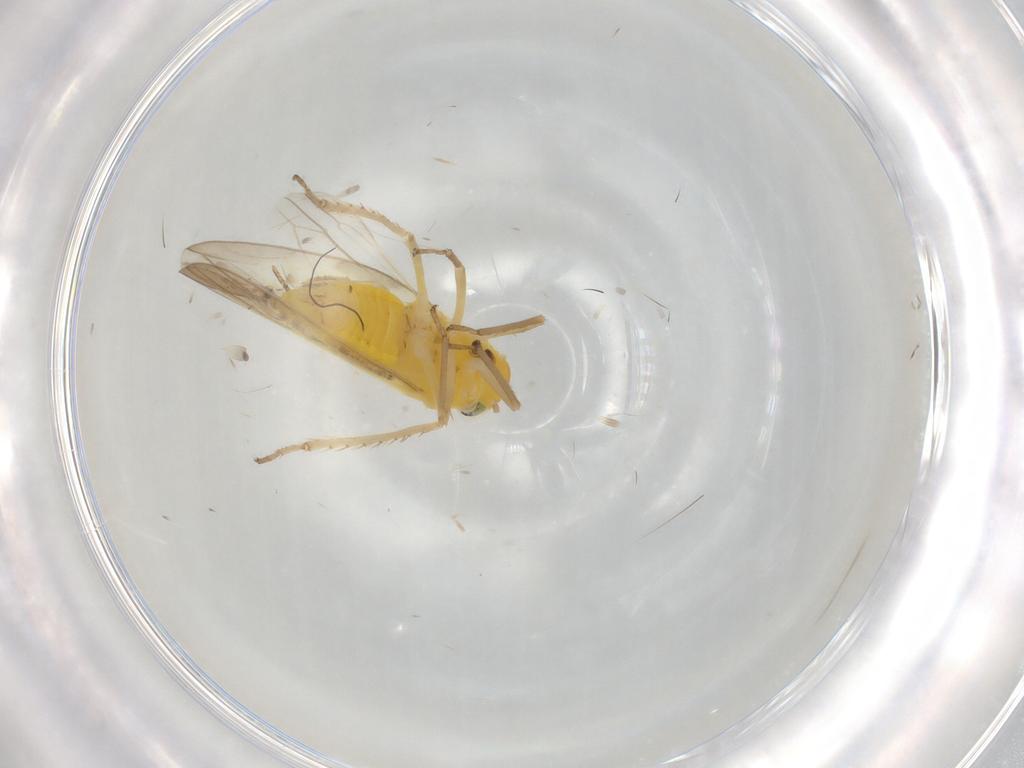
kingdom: Animalia
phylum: Arthropoda
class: Insecta
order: Hemiptera
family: Cicadellidae
